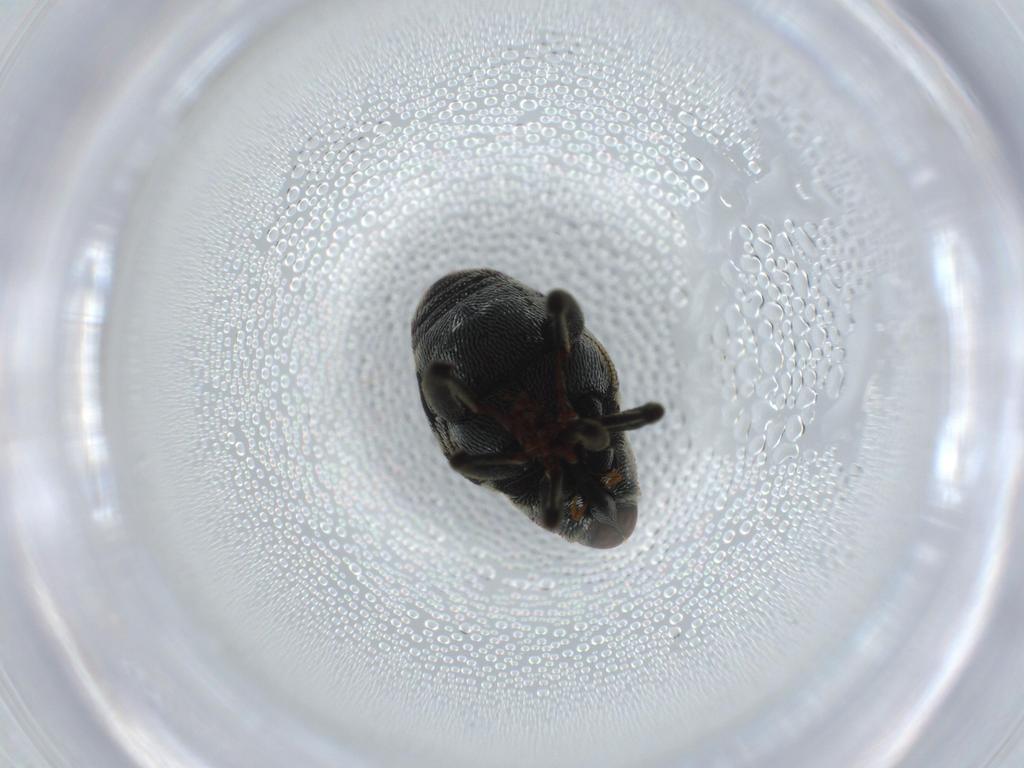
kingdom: Animalia
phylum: Arthropoda
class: Insecta
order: Coleoptera
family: Curculionidae
